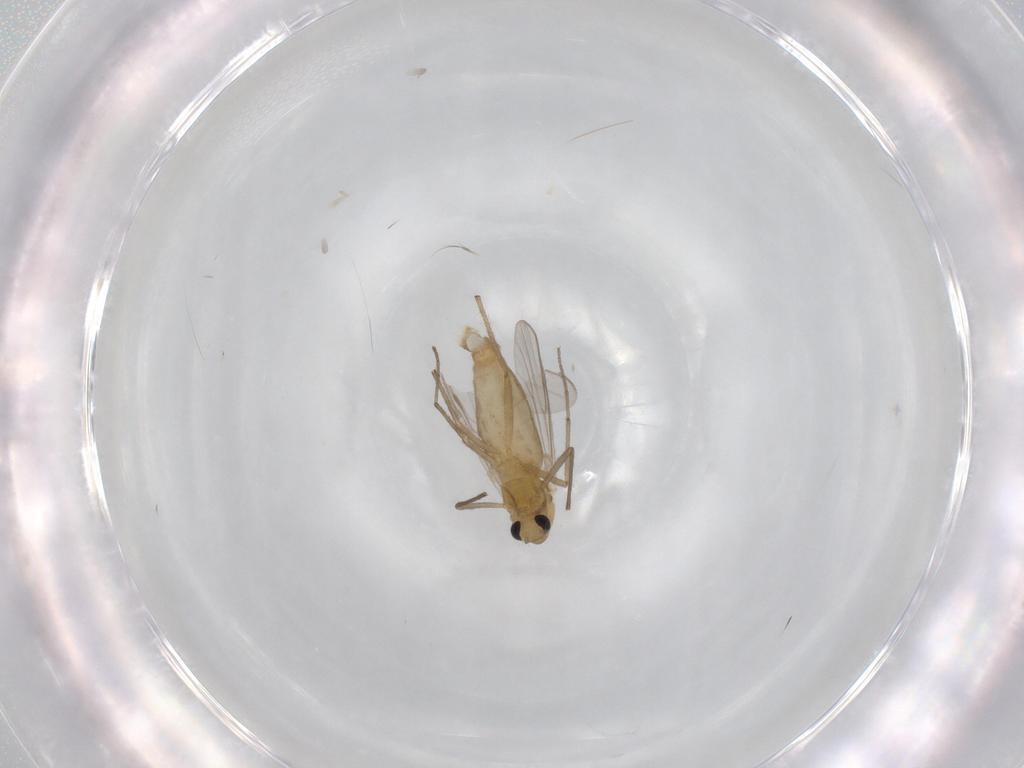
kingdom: Animalia
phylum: Arthropoda
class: Insecta
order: Diptera
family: Chironomidae
